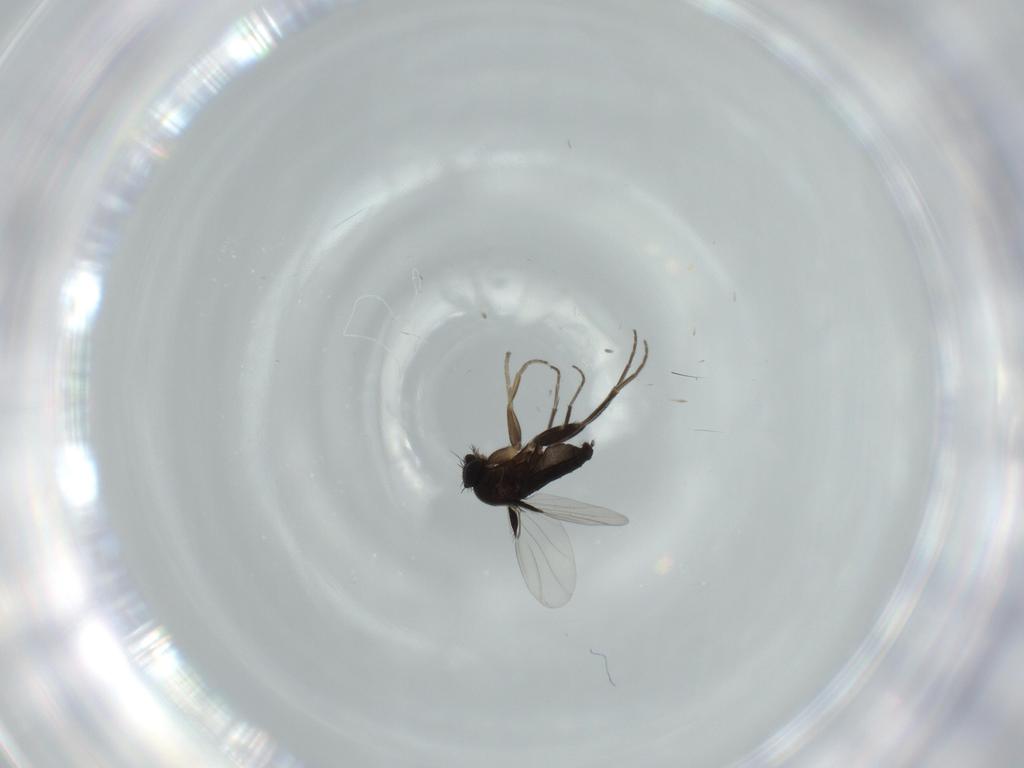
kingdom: Animalia
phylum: Arthropoda
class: Insecta
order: Diptera
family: Phoridae
